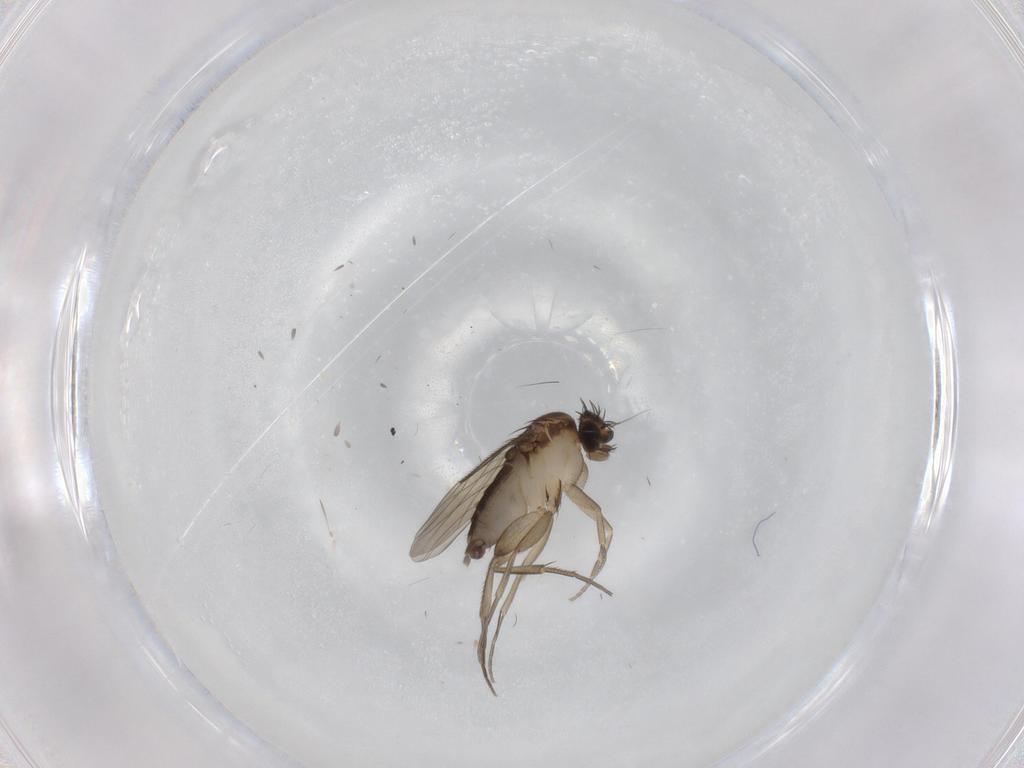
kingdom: Animalia
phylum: Arthropoda
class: Insecta
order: Diptera
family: Phoridae
